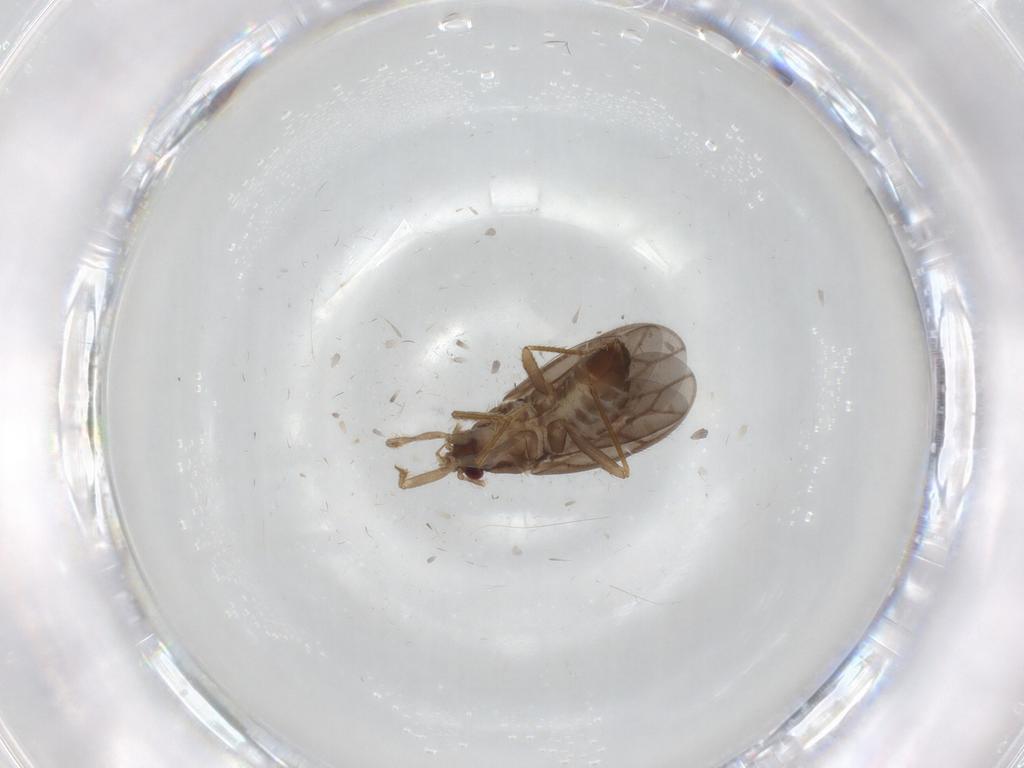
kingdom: Animalia
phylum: Arthropoda
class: Insecta
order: Hemiptera
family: Ceratocombidae
